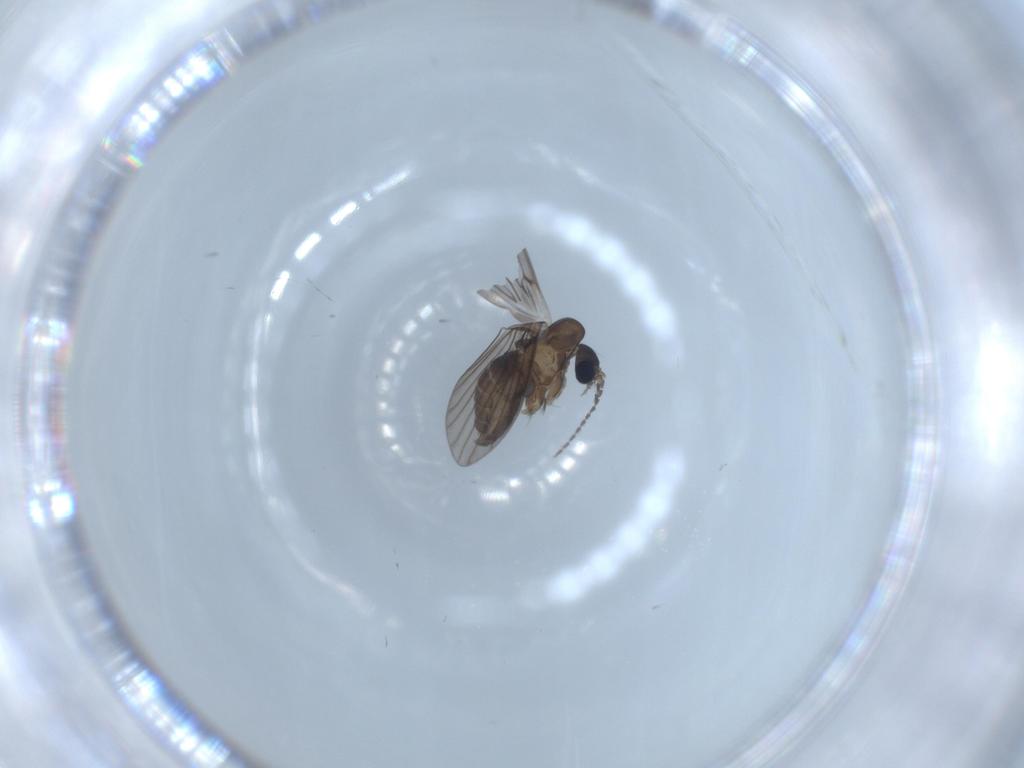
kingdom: Animalia
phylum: Arthropoda
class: Insecta
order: Diptera
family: Psychodidae
